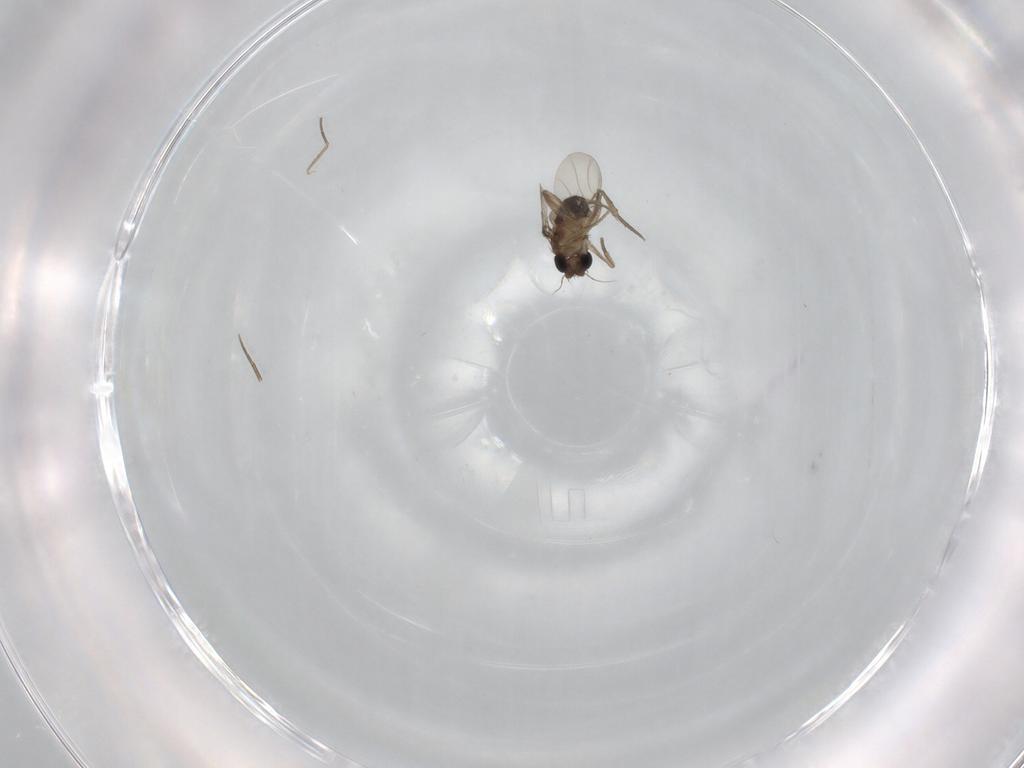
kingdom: Animalia
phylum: Arthropoda
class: Insecta
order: Diptera
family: Phoridae
